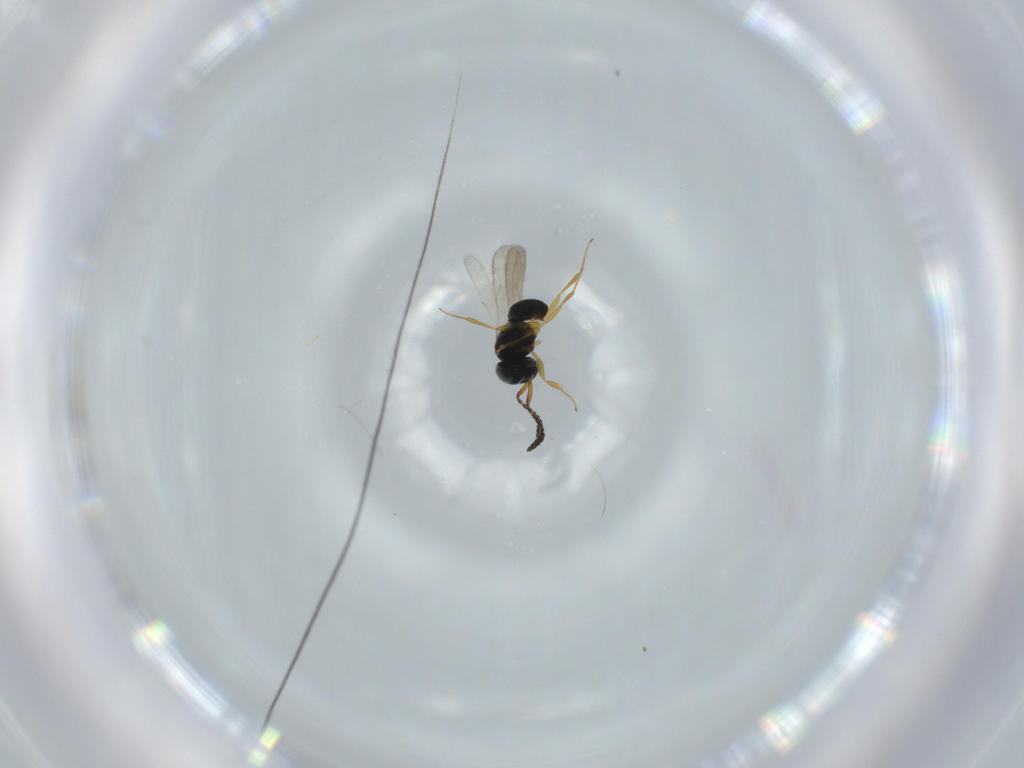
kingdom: Animalia
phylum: Arthropoda
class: Insecta
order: Hymenoptera
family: Scelionidae
